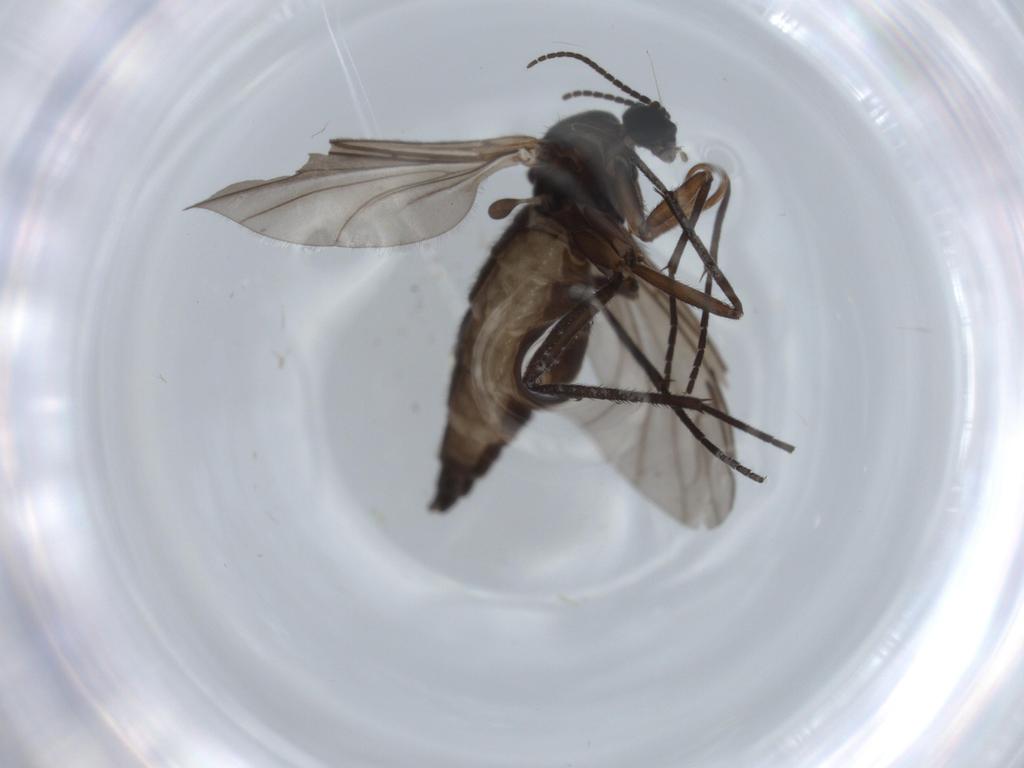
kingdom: Animalia
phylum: Arthropoda
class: Insecta
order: Diptera
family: Sciaridae
